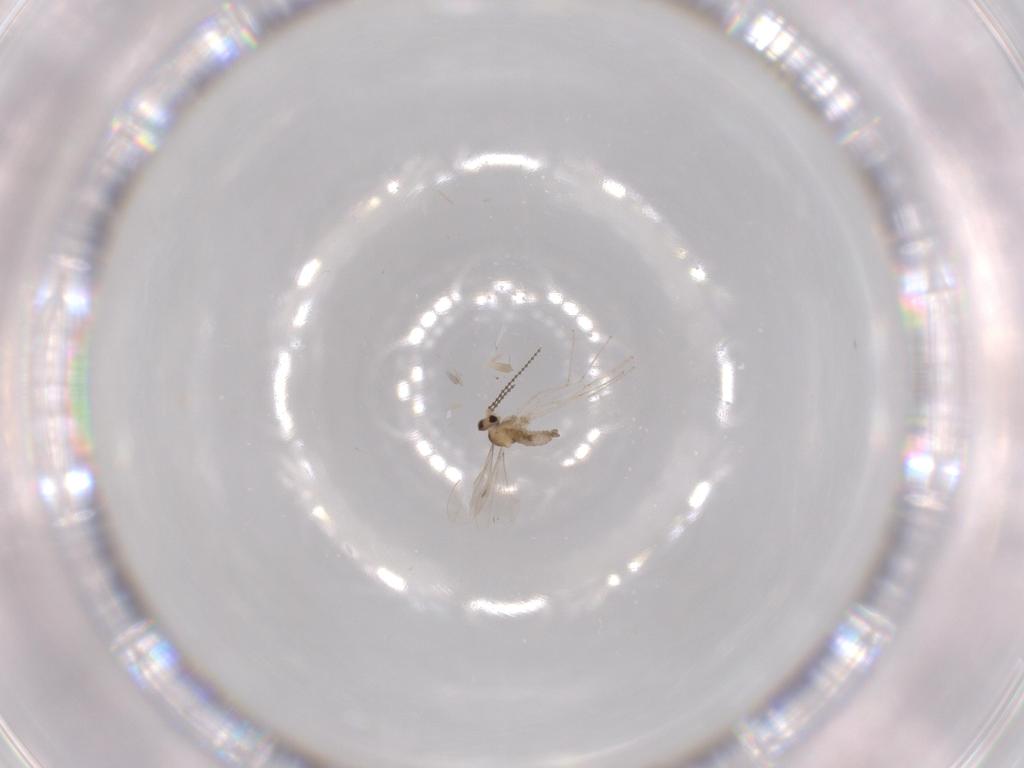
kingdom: Animalia
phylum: Arthropoda
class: Insecta
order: Diptera
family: Cecidomyiidae
